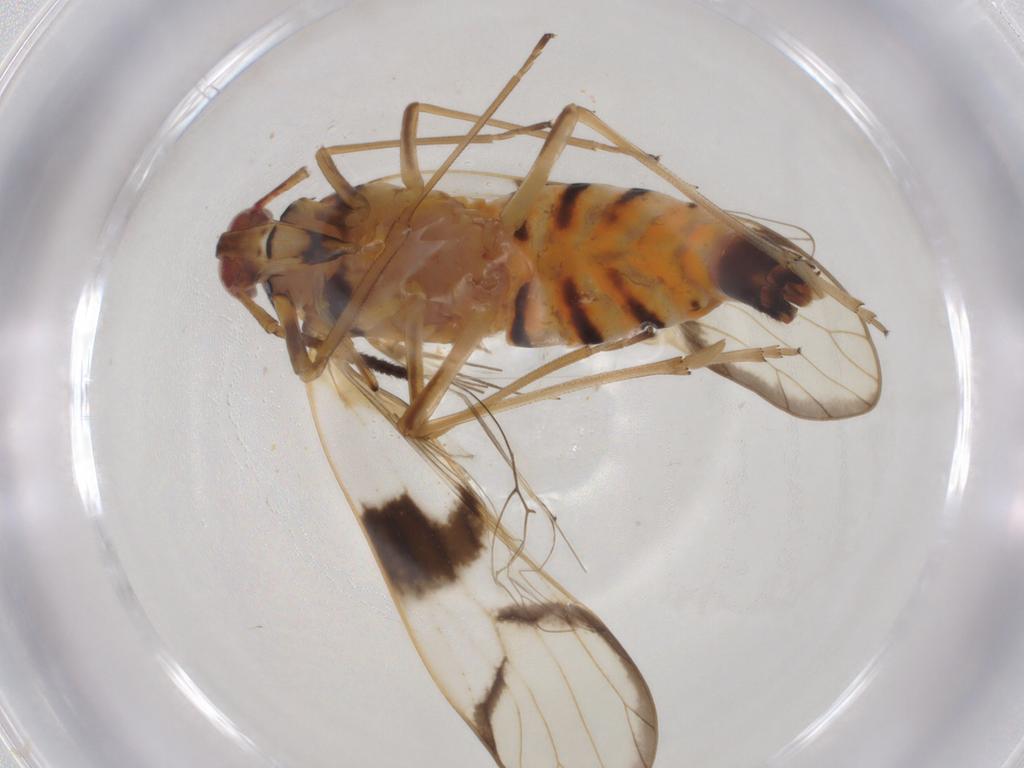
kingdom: Animalia
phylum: Arthropoda
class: Insecta
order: Hemiptera
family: Delphacidae
